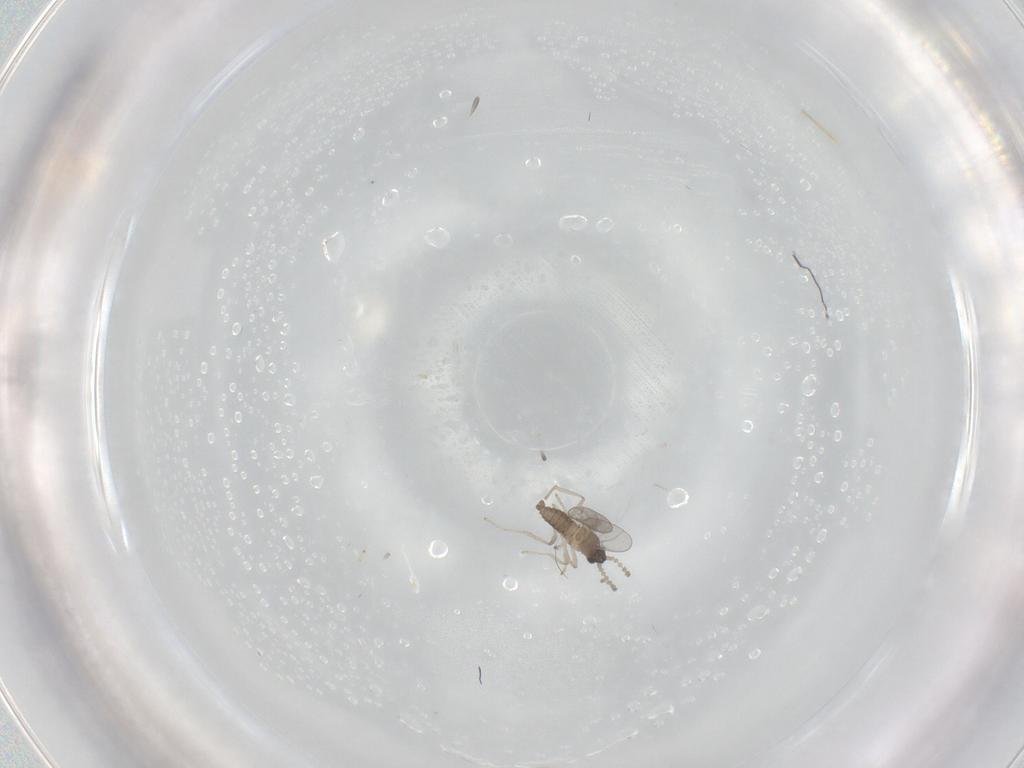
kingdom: Animalia
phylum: Arthropoda
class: Insecta
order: Diptera
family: Cecidomyiidae
